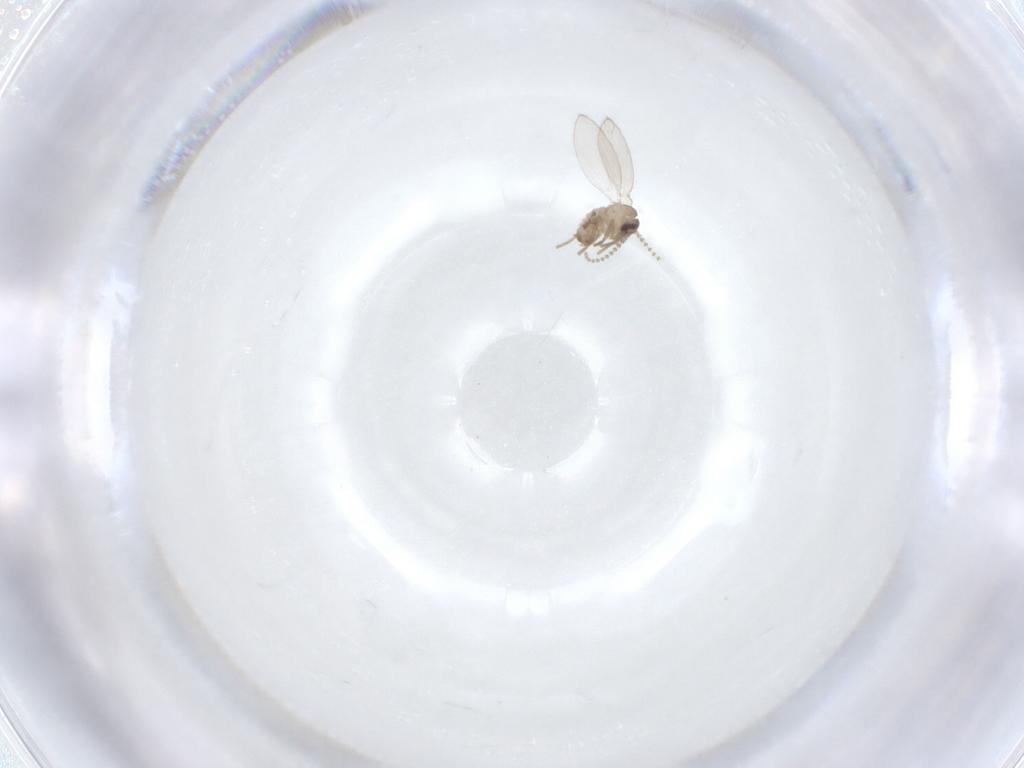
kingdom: Animalia
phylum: Arthropoda
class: Insecta
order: Diptera
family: Psychodidae
